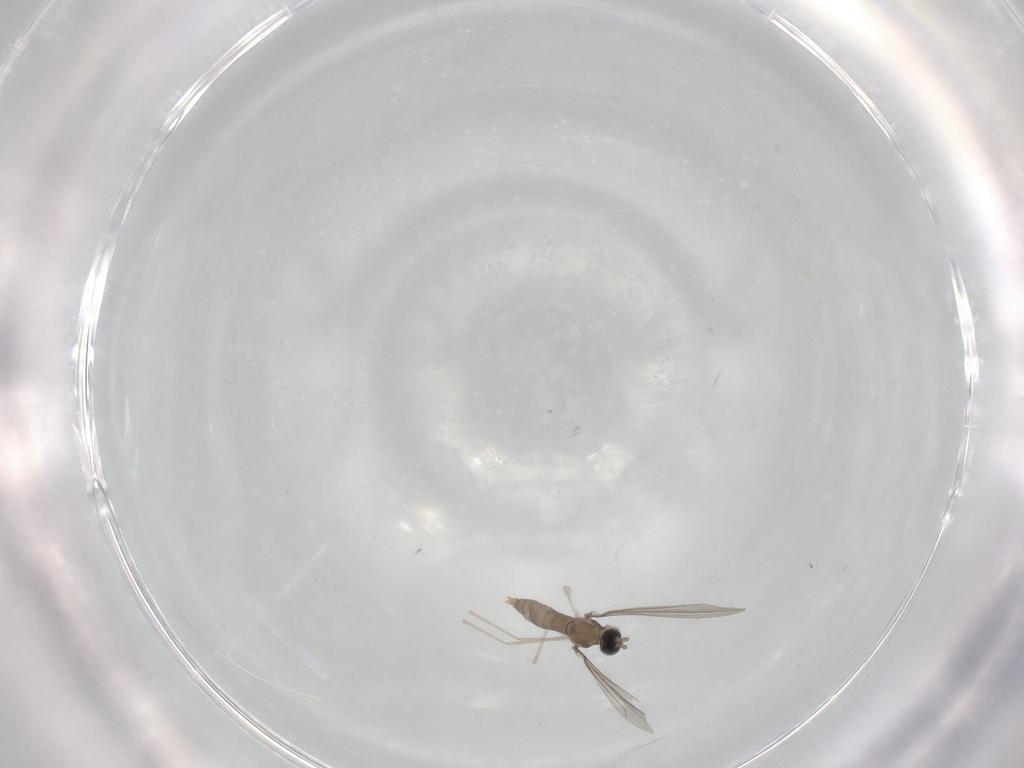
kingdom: Animalia
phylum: Arthropoda
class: Insecta
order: Diptera
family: Cecidomyiidae
